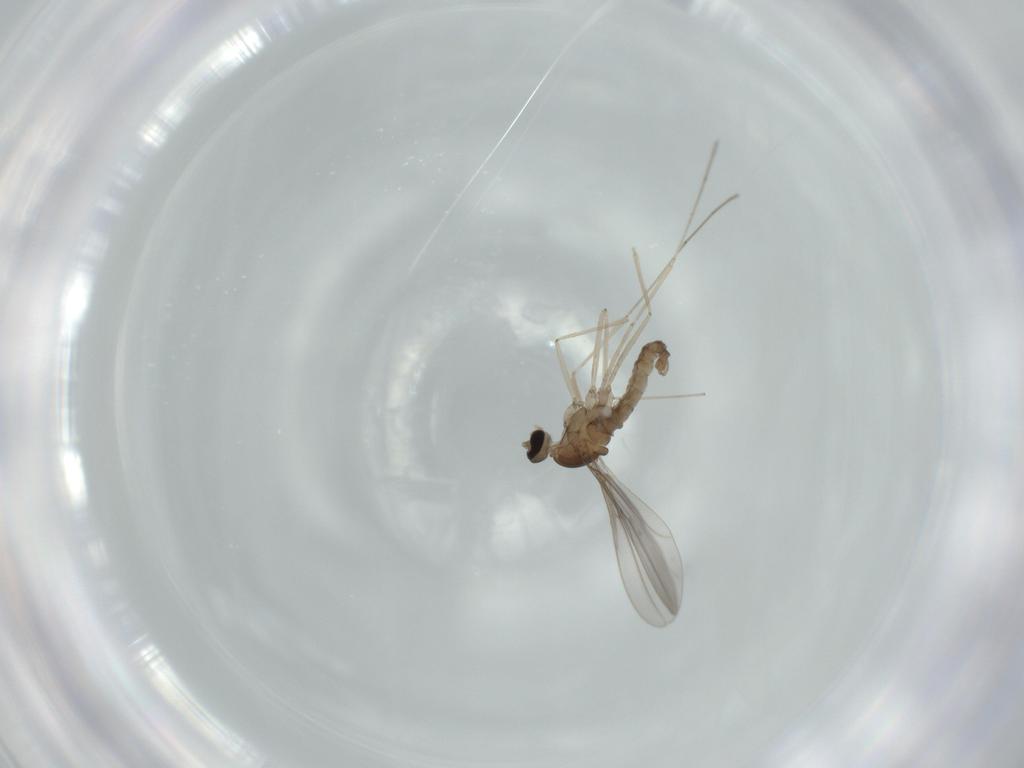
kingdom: Animalia
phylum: Arthropoda
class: Insecta
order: Diptera
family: Cecidomyiidae
